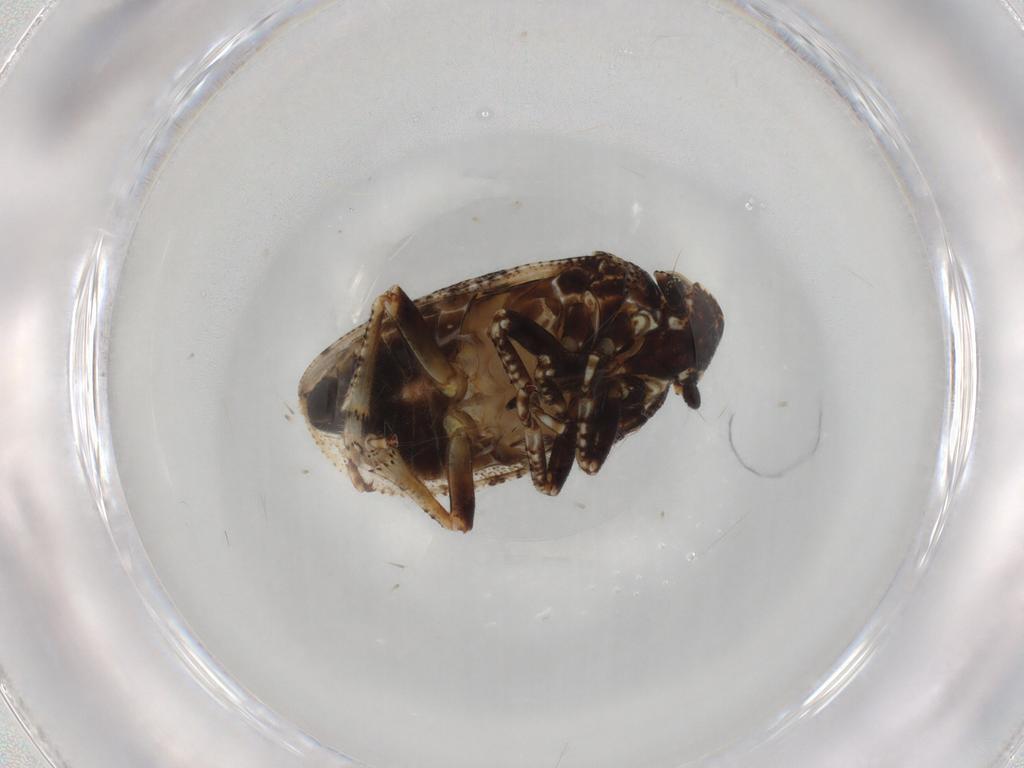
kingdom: Animalia
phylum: Arthropoda
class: Insecta
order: Hemiptera
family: Tettigometridae
